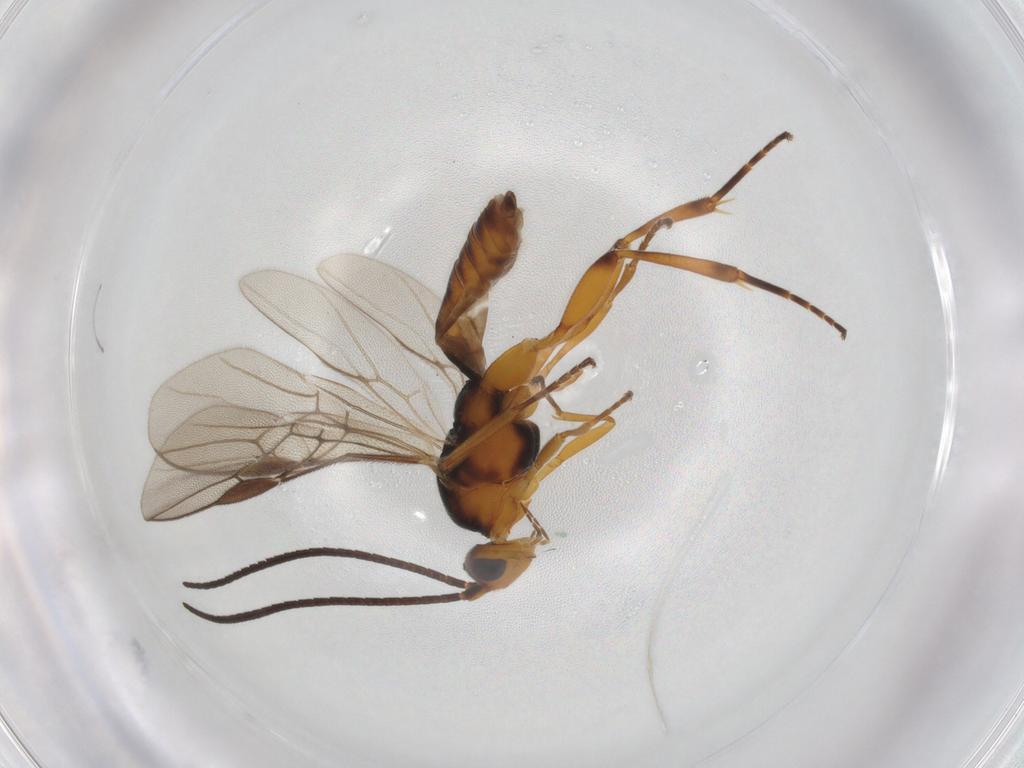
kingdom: Animalia
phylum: Arthropoda
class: Insecta
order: Hymenoptera
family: Braconidae
